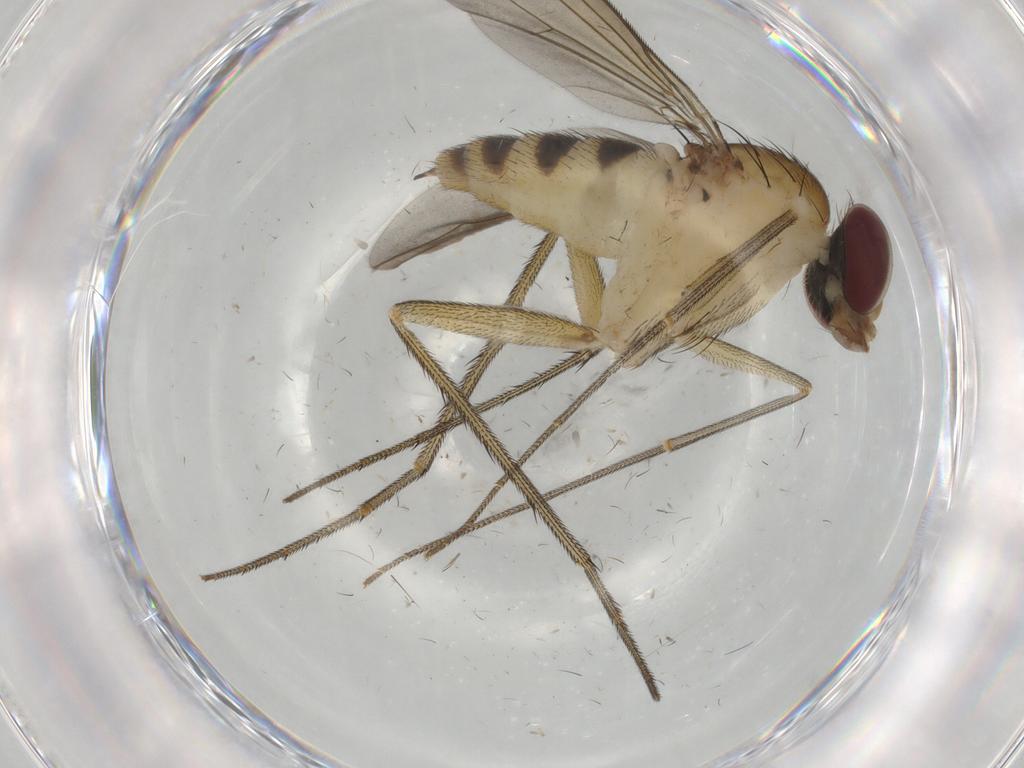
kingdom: Animalia
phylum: Arthropoda
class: Insecta
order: Diptera
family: Dolichopodidae
